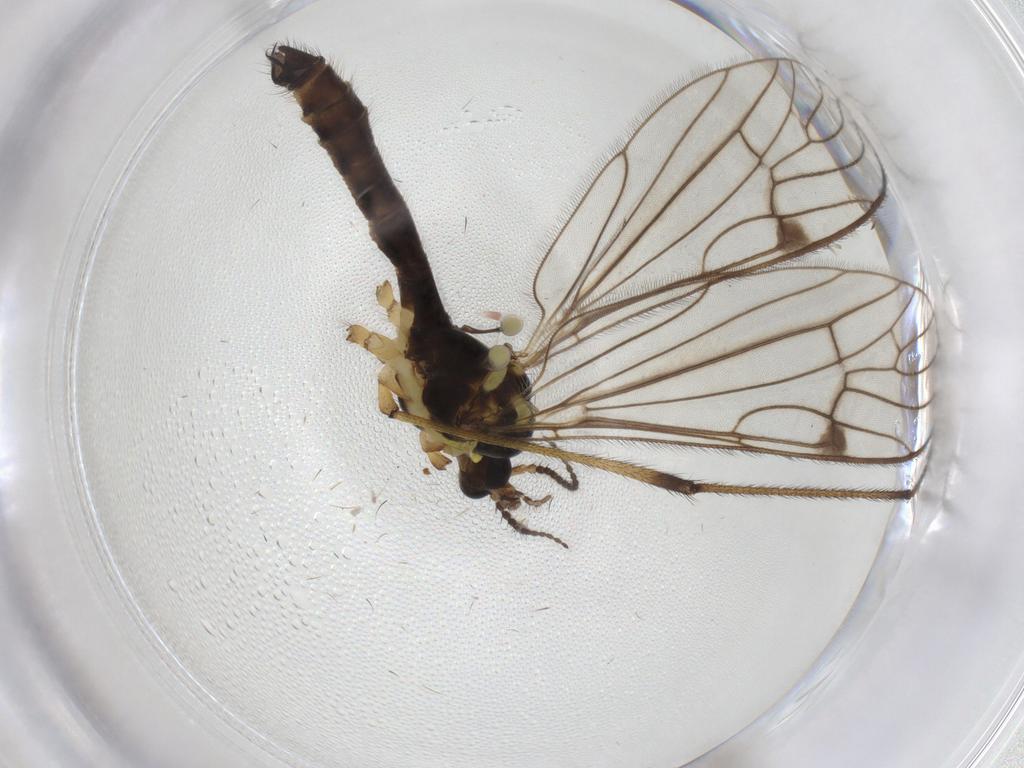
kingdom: Animalia
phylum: Arthropoda
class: Insecta
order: Diptera
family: Limoniidae
